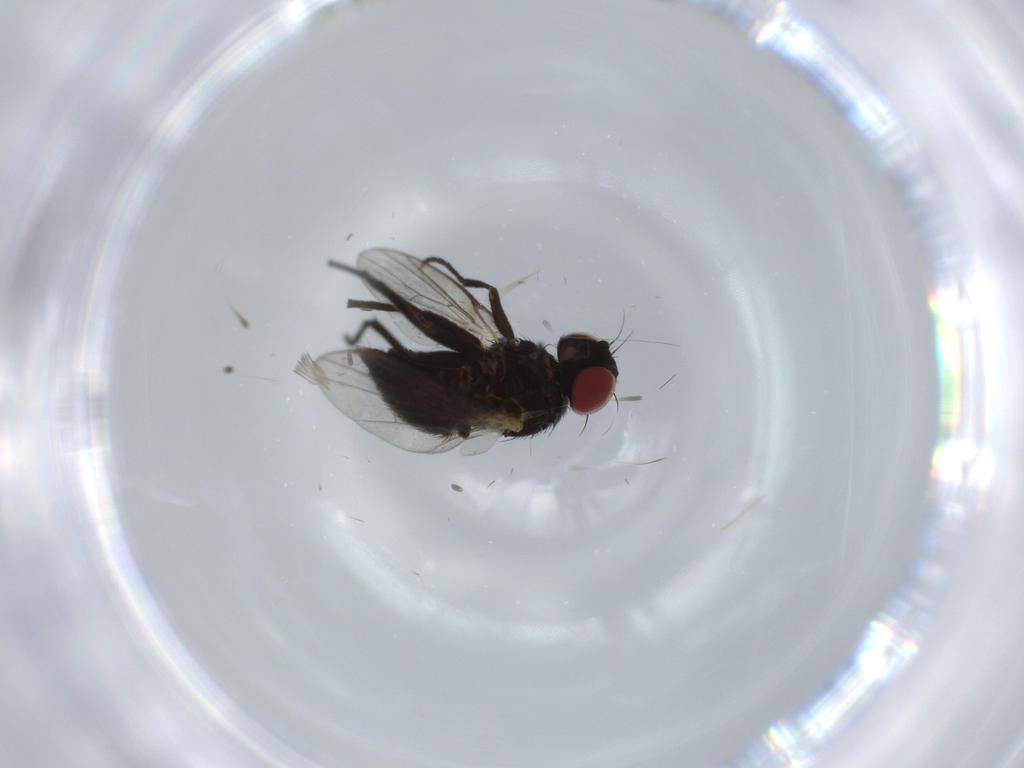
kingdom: Animalia
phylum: Arthropoda
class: Insecta
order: Diptera
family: Agromyzidae
